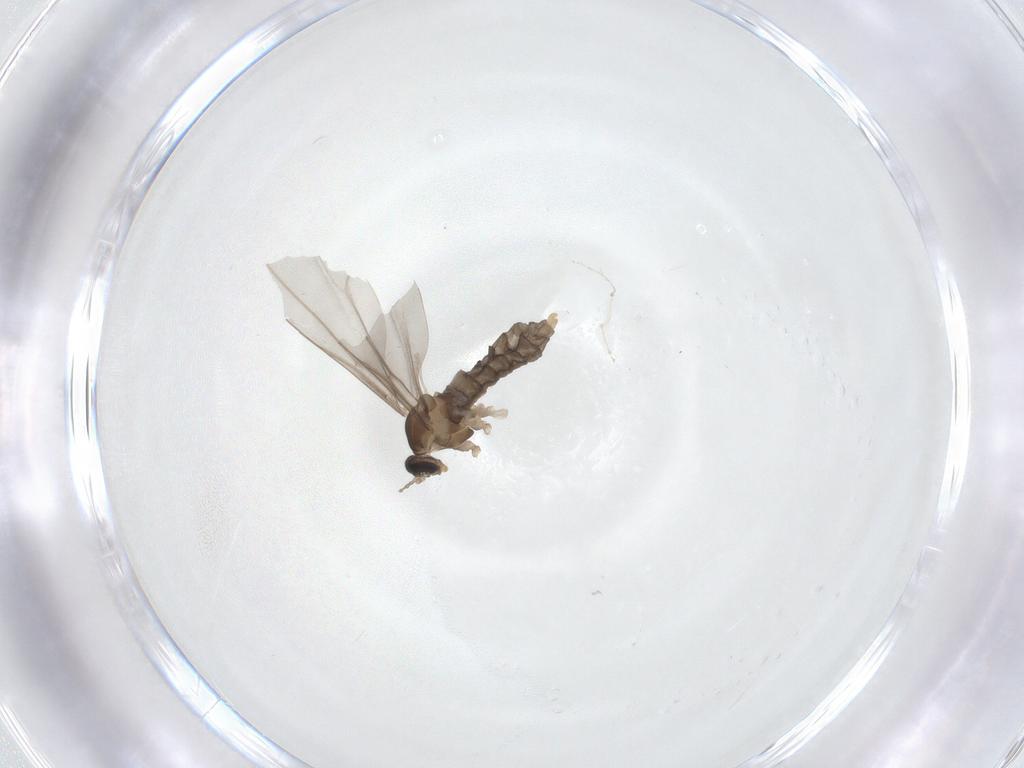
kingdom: Animalia
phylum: Arthropoda
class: Insecta
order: Diptera
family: Cecidomyiidae
